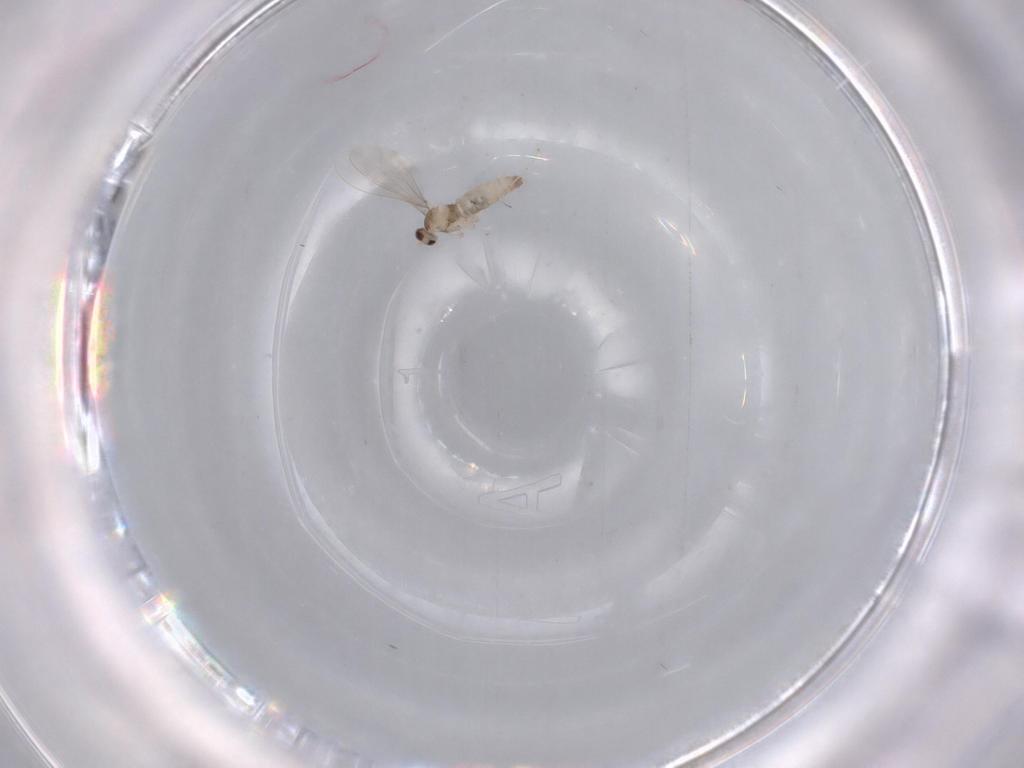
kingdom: Animalia
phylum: Arthropoda
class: Insecta
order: Diptera
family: Cecidomyiidae
